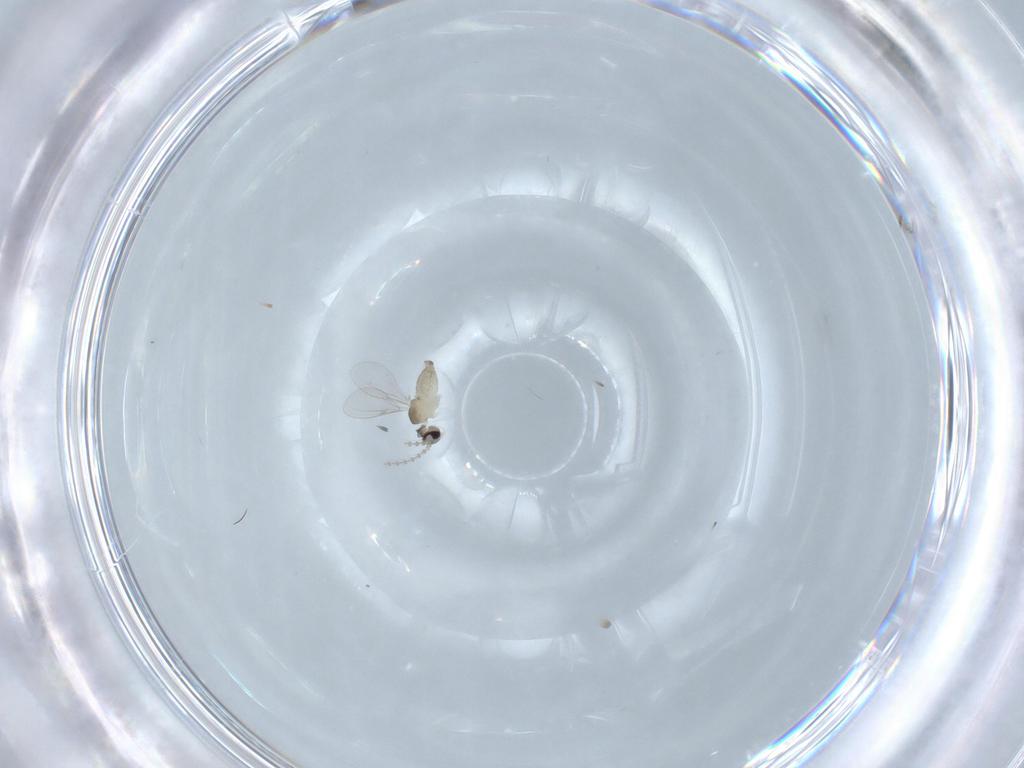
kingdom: Animalia
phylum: Arthropoda
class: Insecta
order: Diptera
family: Cecidomyiidae
